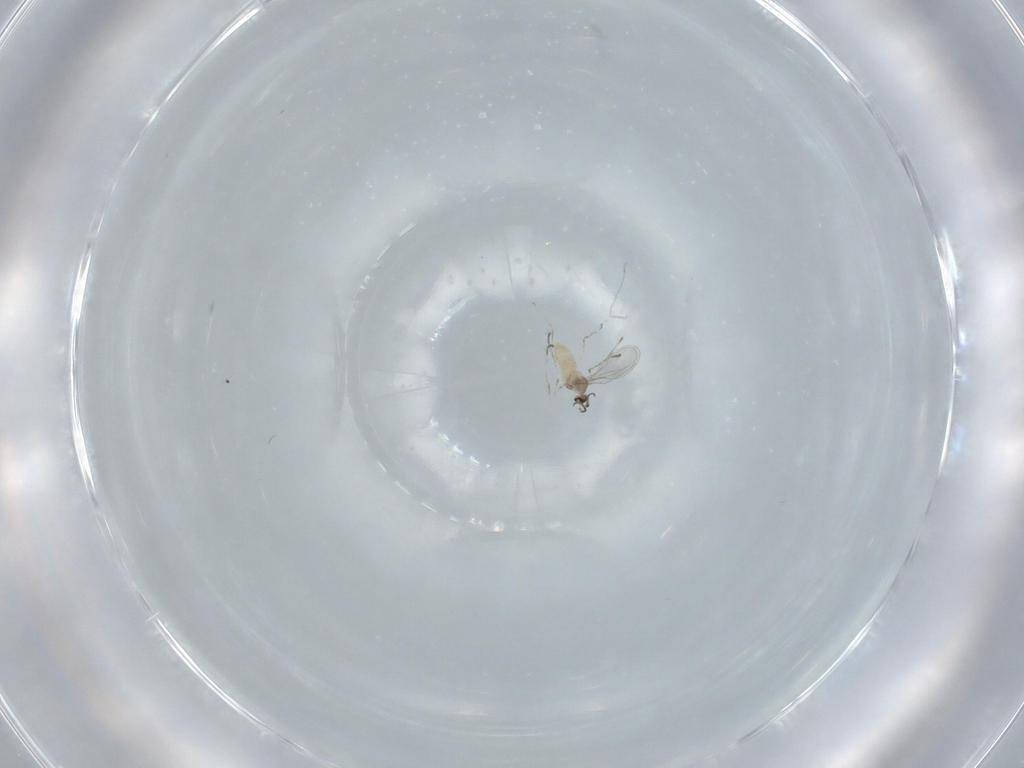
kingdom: Animalia
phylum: Arthropoda
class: Insecta
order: Diptera
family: Cecidomyiidae
